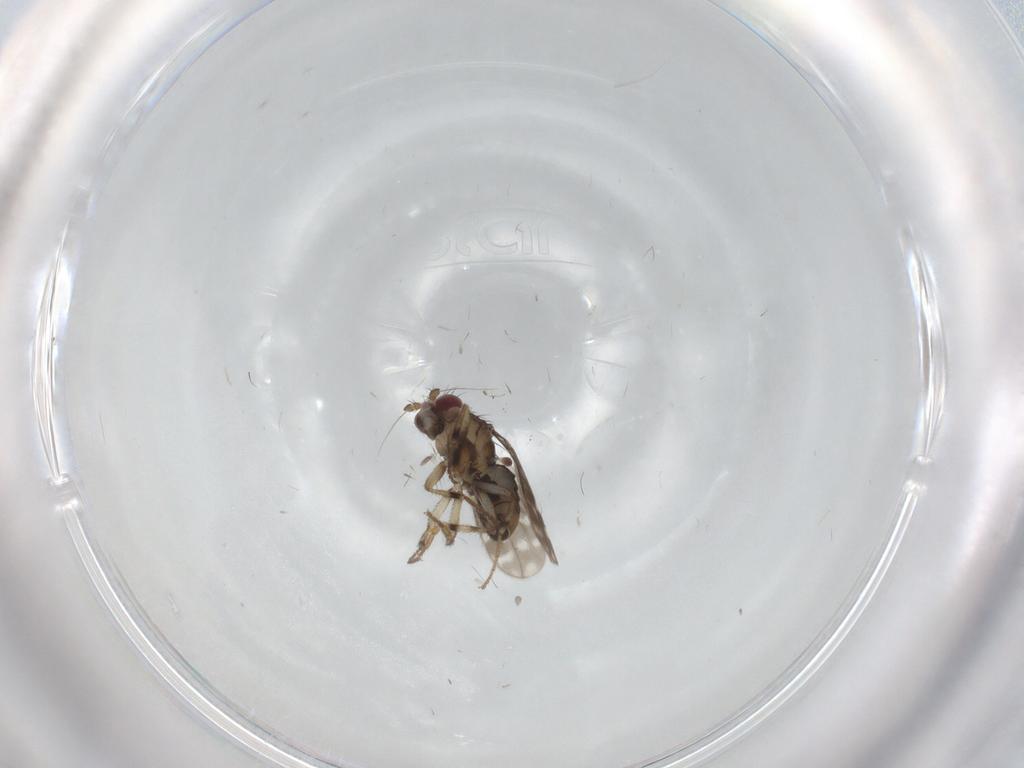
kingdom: Animalia
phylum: Arthropoda
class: Insecta
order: Diptera
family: Sphaeroceridae
